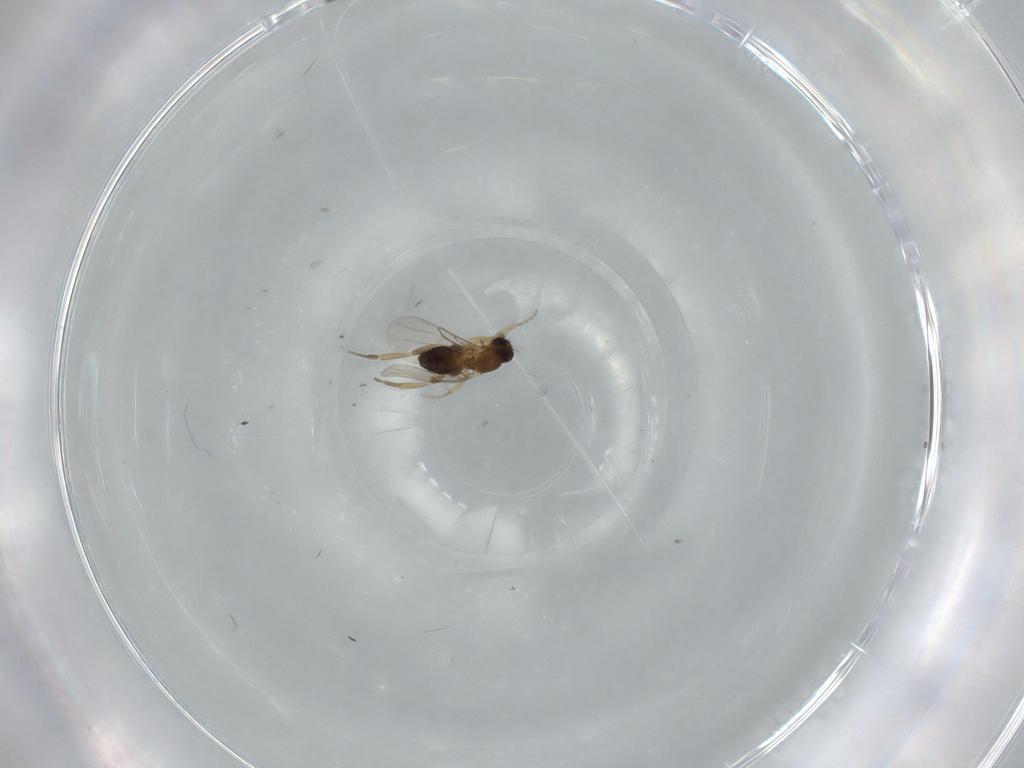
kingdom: Animalia
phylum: Arthropoda
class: Insecta
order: Diptera
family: Phoridae
